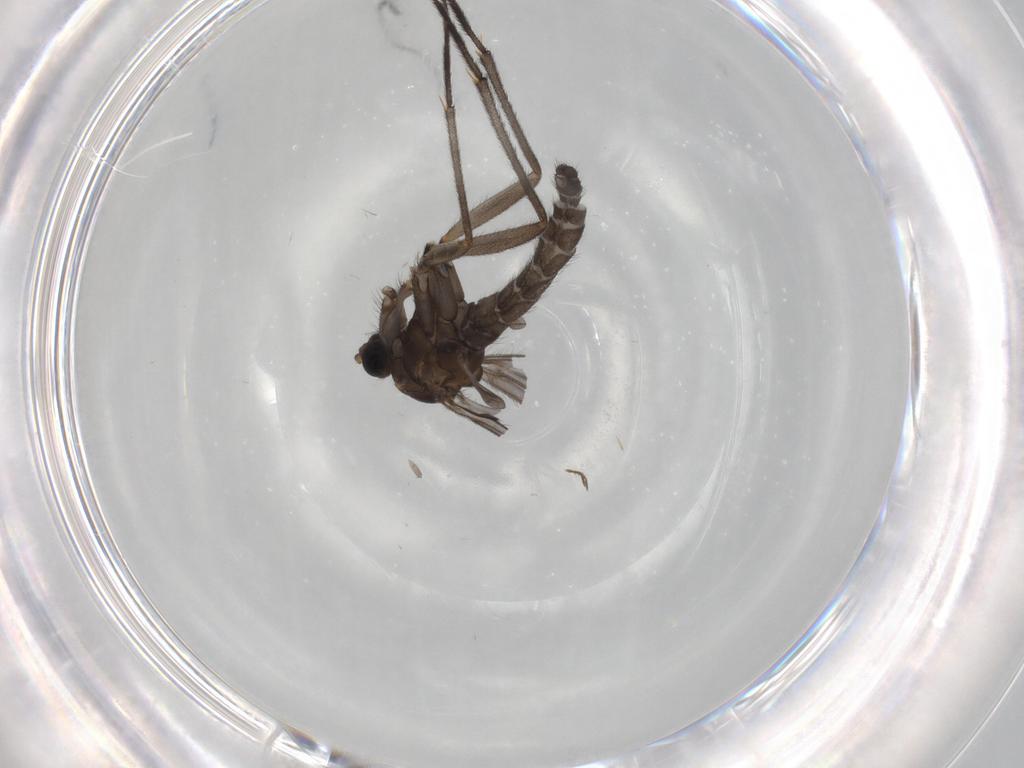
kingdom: Animalia
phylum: Arthropoda
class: Insecta
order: Diptera
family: Sciaridae
